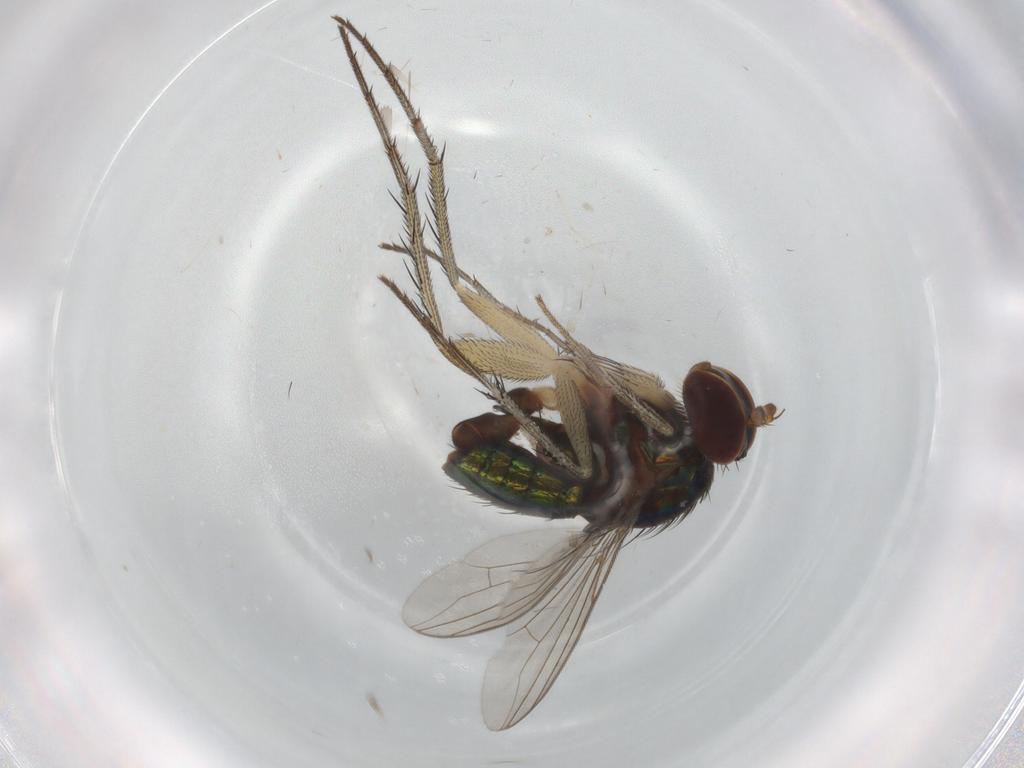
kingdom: Animalia
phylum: Arthropoda
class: Insecta
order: Diptera
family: Dolichopodidae
